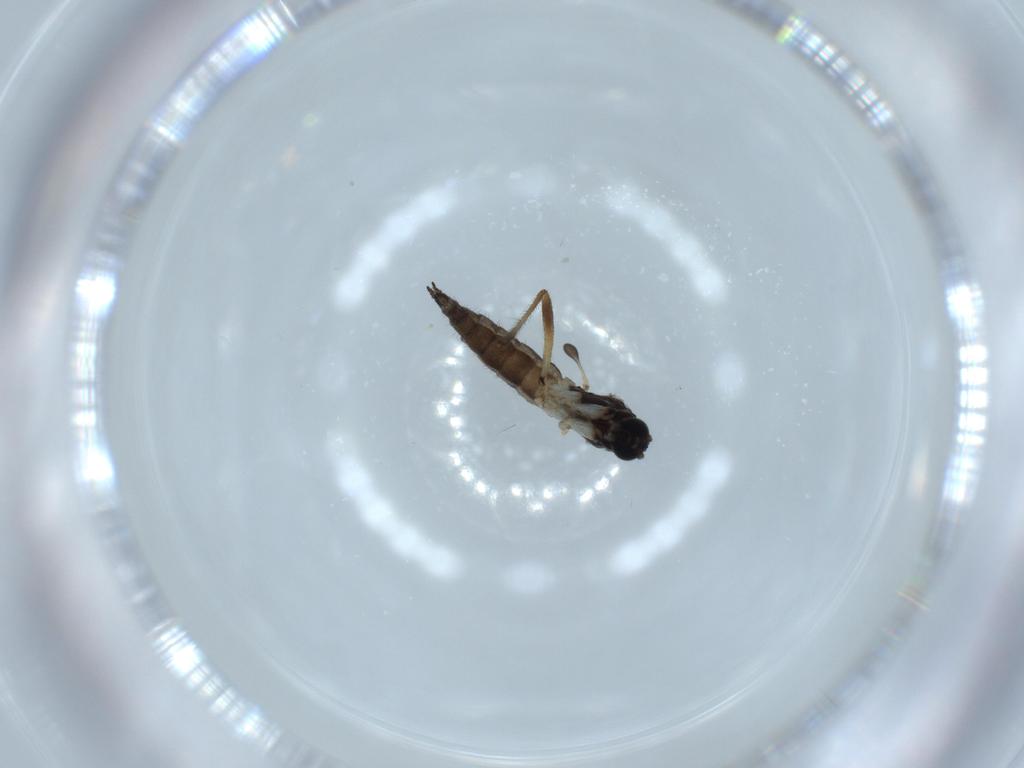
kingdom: Animalia
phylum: Arthropoda
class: Insecta
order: Diptera
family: Sciaridae
